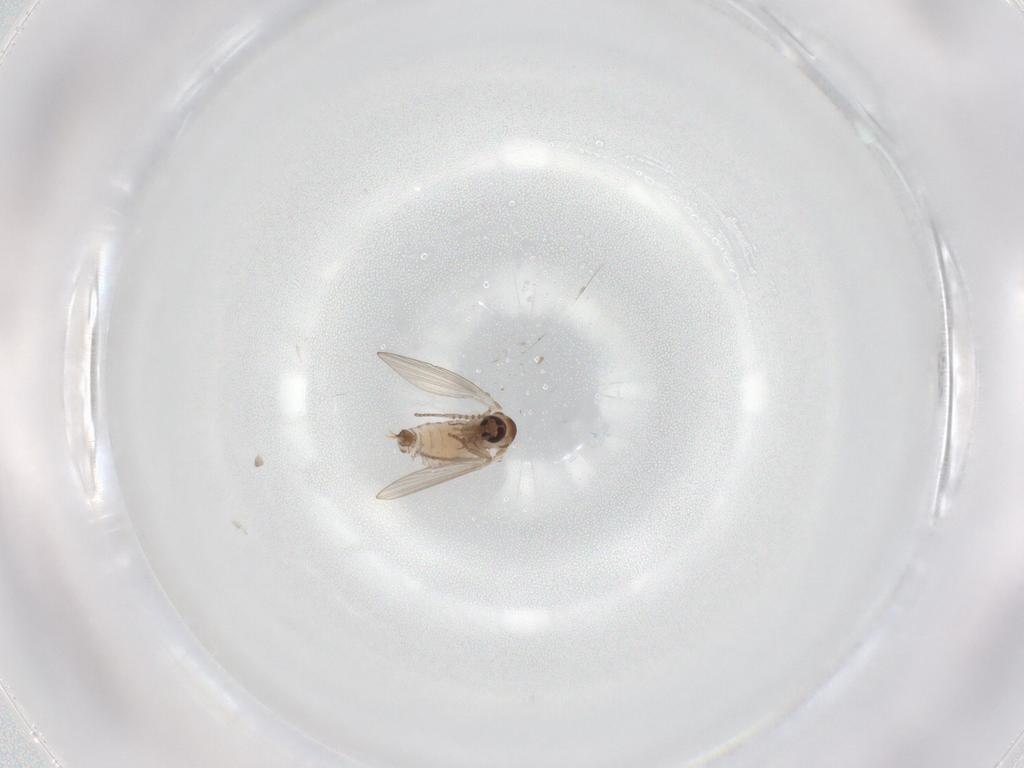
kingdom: Animalia
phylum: Arthropoda
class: Insecta
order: Diptera
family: Psychodidae
